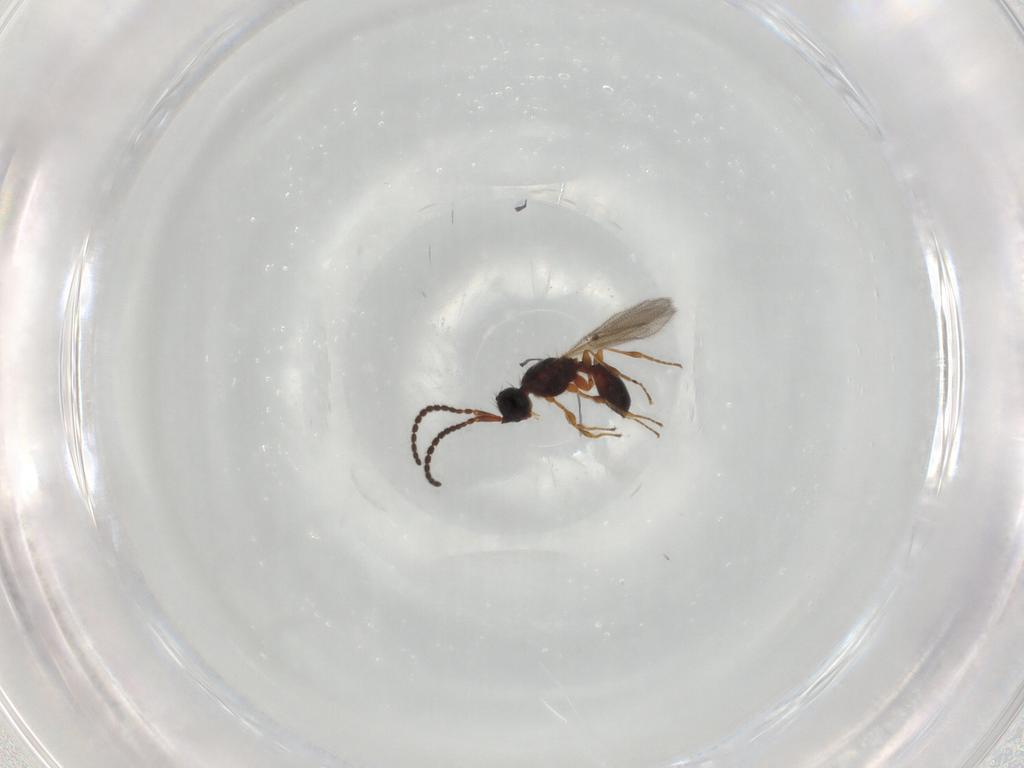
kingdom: Animalia
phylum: Arthropoda
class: Insecta
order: Hymenoptera
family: Diapriidae
